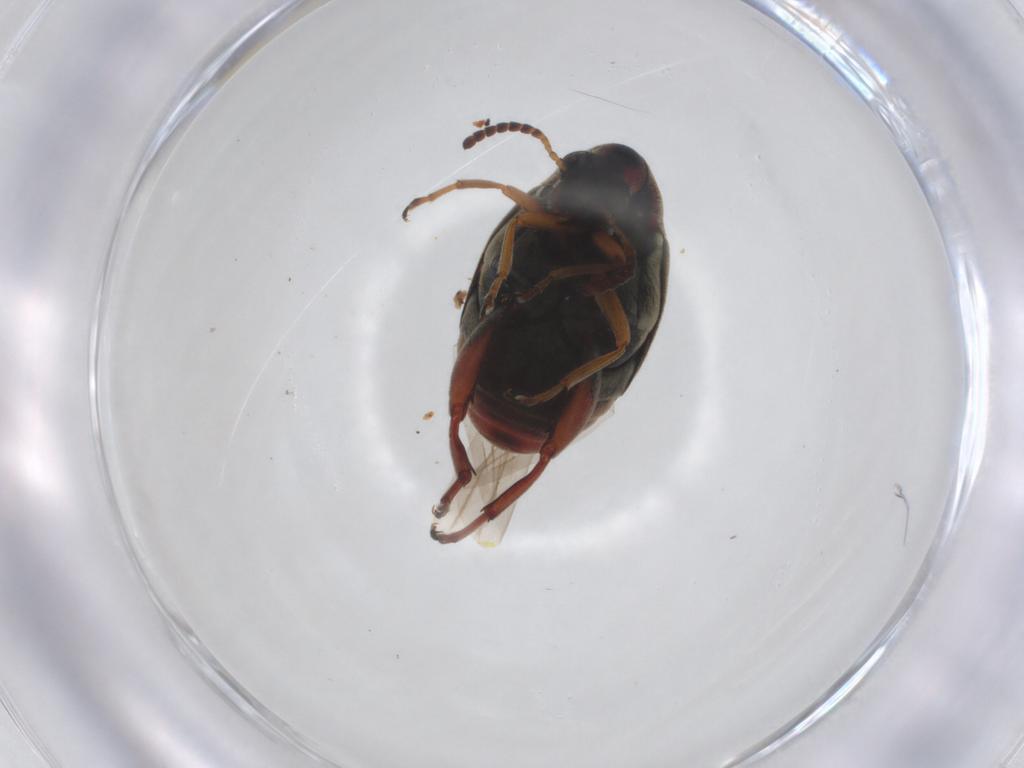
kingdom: Animalia
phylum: Arthropoda
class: Insecta
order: Coleoptera
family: Chrysomelidae
